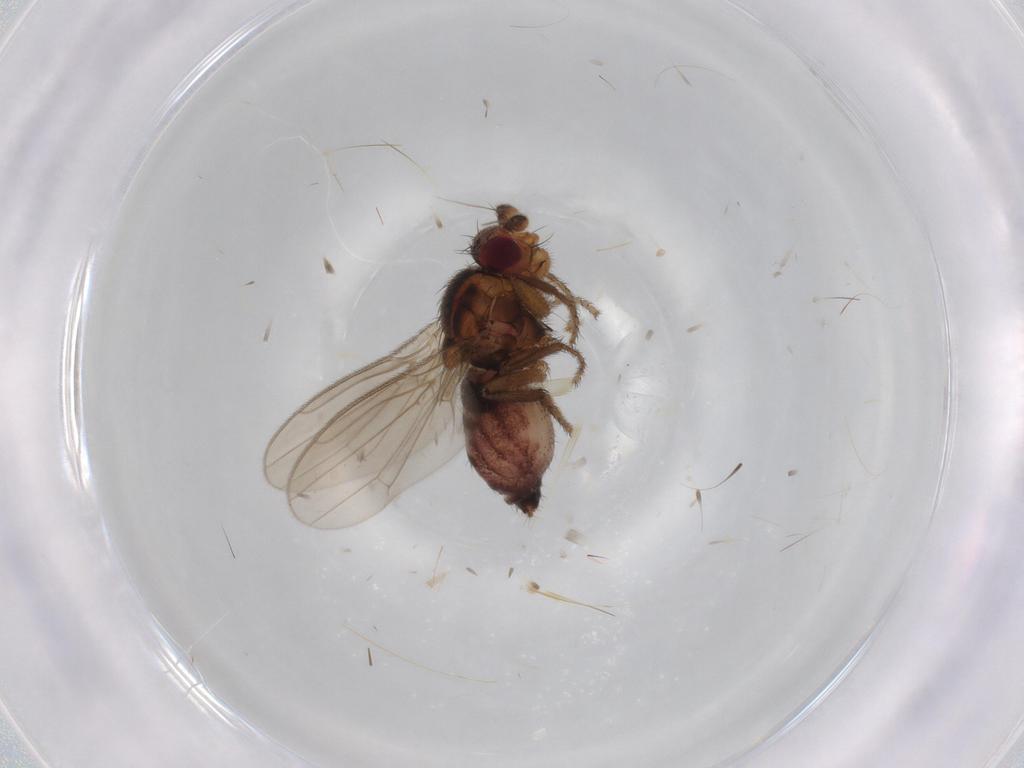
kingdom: Animalia
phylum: Arthropoda
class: Insecta
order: Diptera
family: Sphaeroceridae
